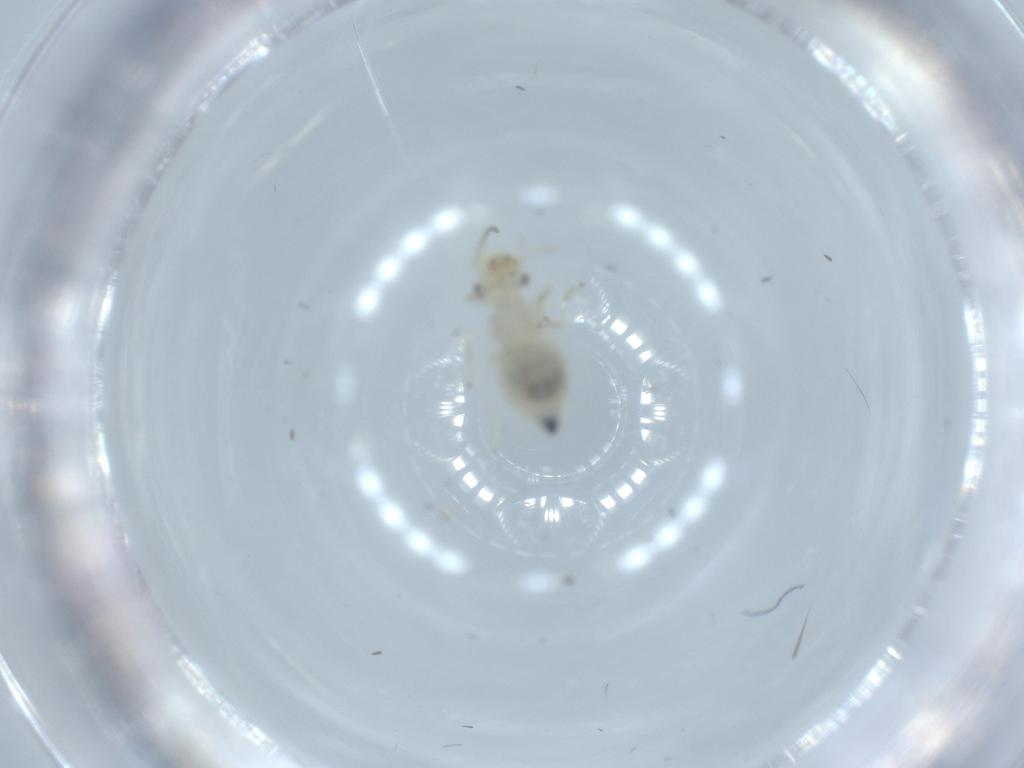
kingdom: Animalia
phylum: Arthropoda
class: Insecta
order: Psocodea
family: Caeciliusidae
